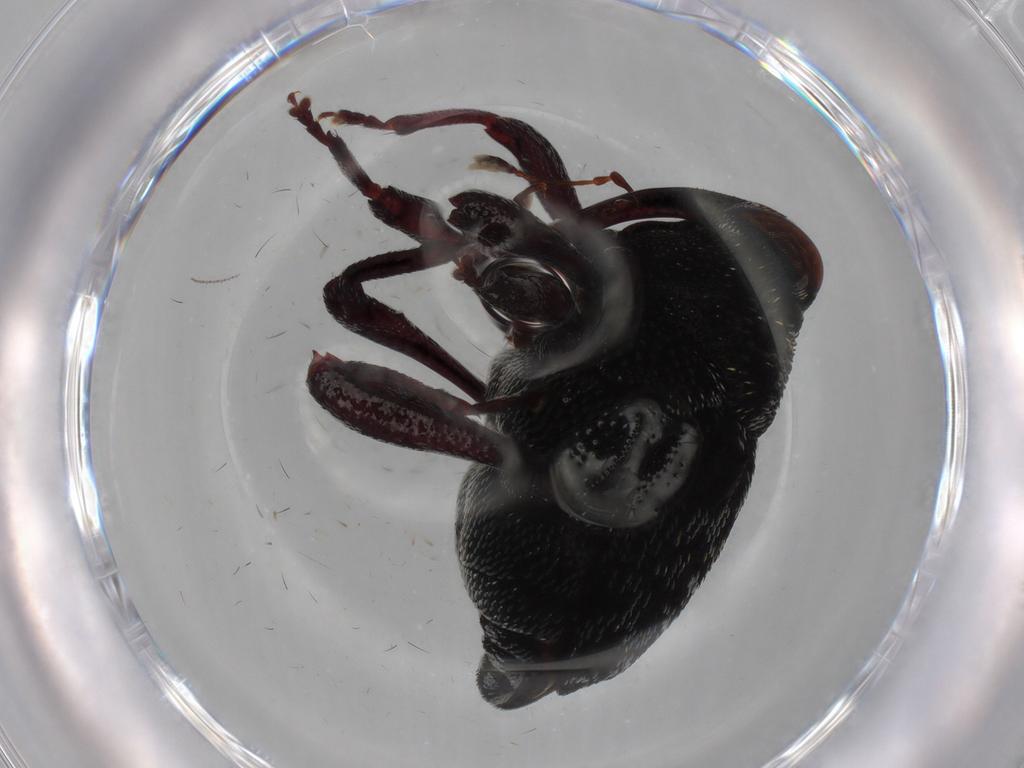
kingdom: Animalia
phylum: Arthropoda
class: Insecta
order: Coleoptera
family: Curculionidae
